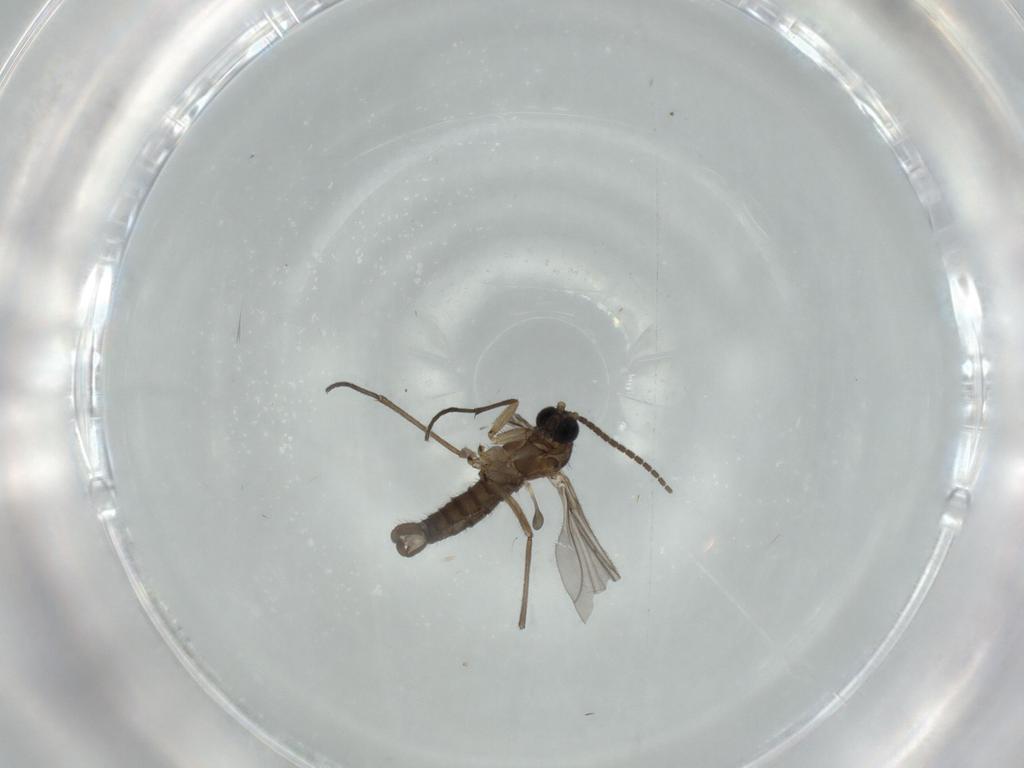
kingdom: Animalia
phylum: Arthropoda
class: Insecta
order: Diptera
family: Sciaridae
